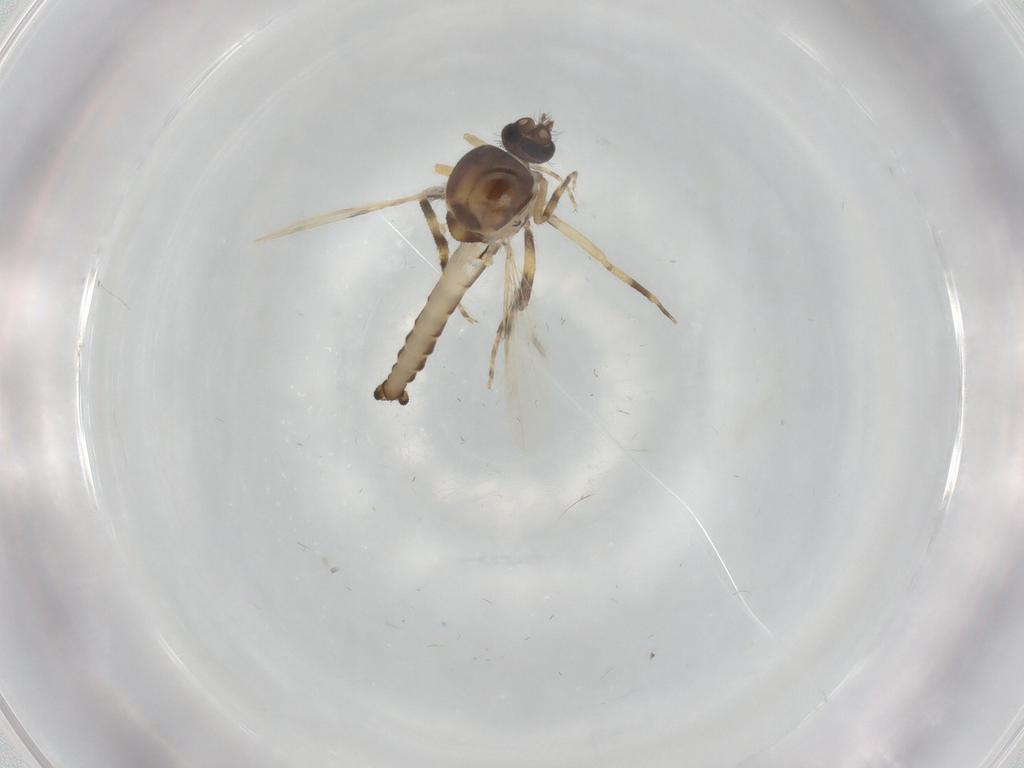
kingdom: Animalia
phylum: Arthropoda
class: Insecta
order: Diptera
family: Ceratopogonidae
